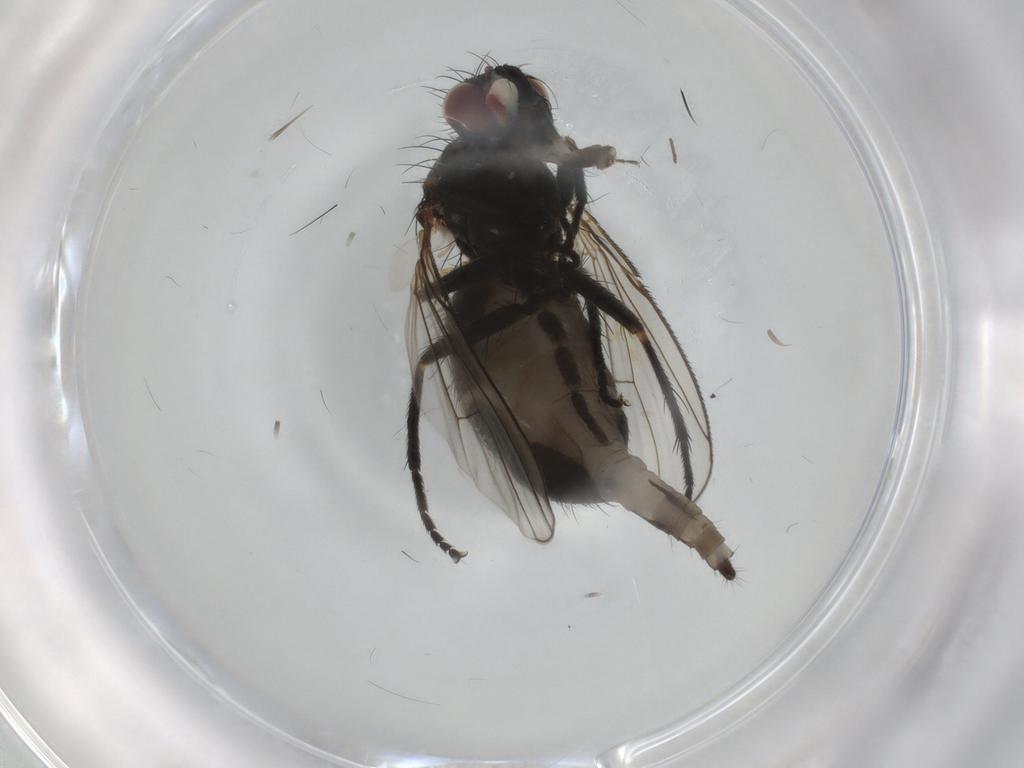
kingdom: Animalia
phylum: Arthropoda
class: Insecta
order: Diptera
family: Muscidae
